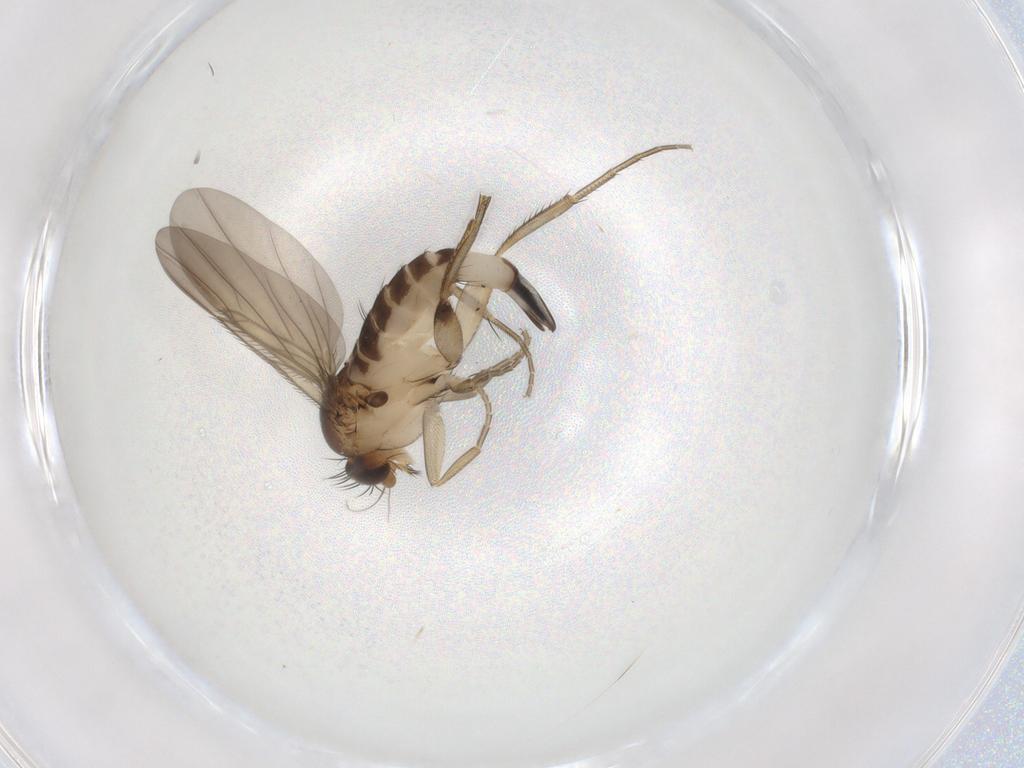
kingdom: Animalia
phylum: Arthropoda
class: Insecta
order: Diptera
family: Phoridae
